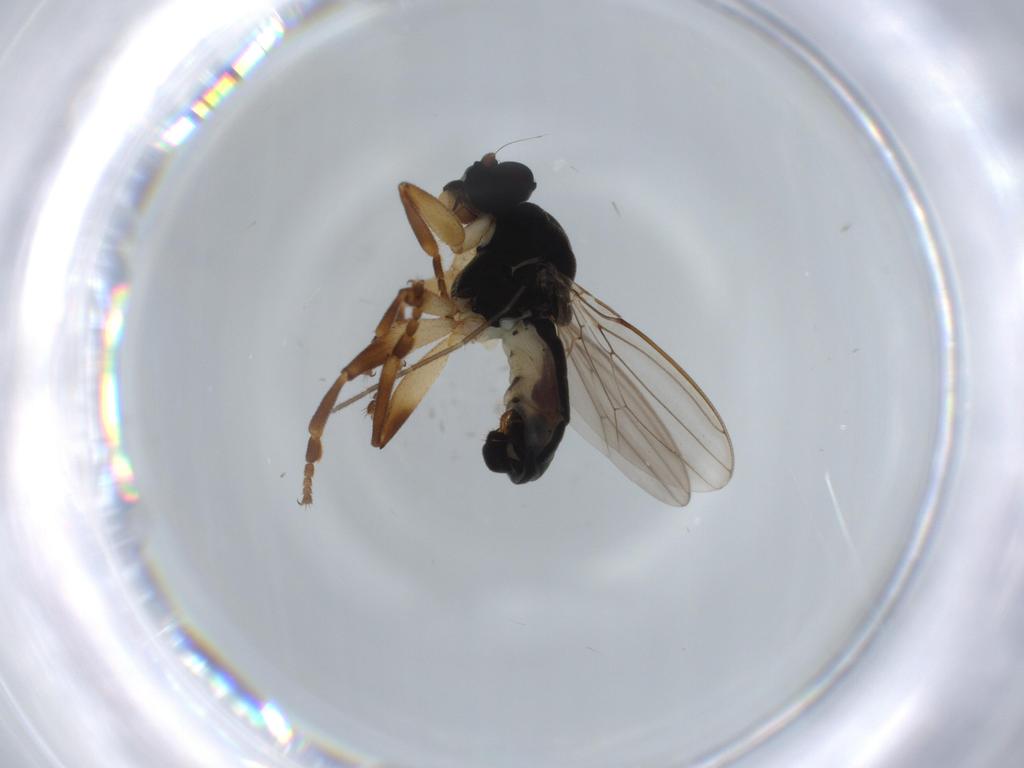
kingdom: Animalia
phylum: Arthropoda
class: Insecta
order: Diptera
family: Sphaeroceridae
